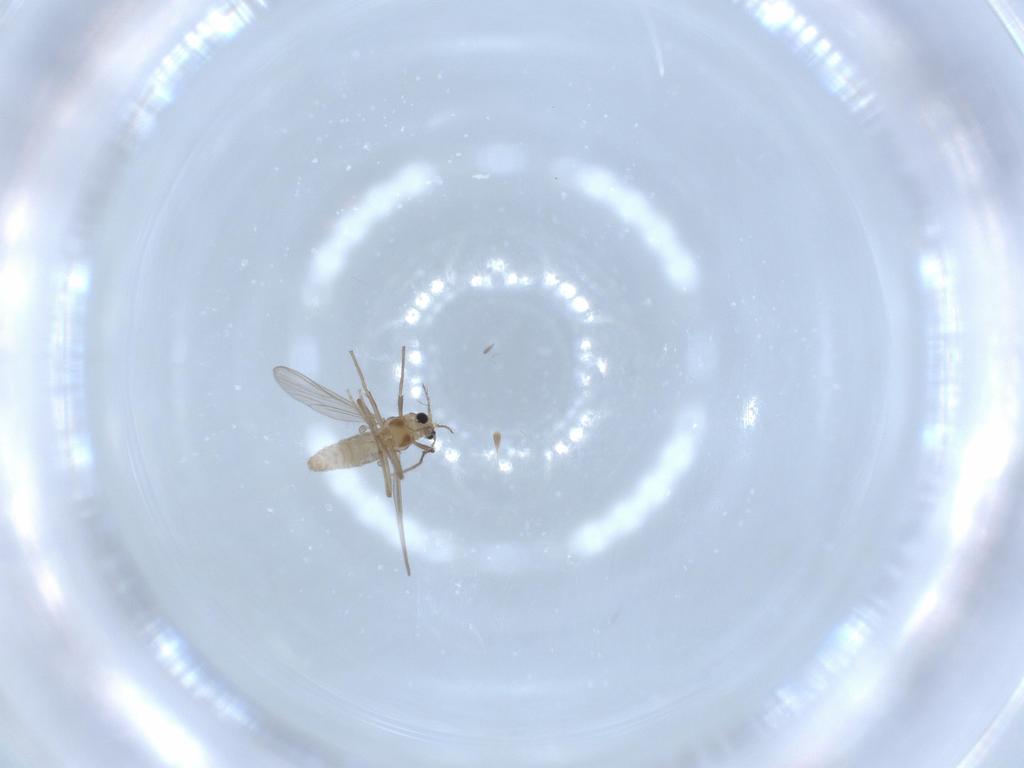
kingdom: Animalia
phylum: Arthropoda
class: Insecta
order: Diptera
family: Chironomidae
